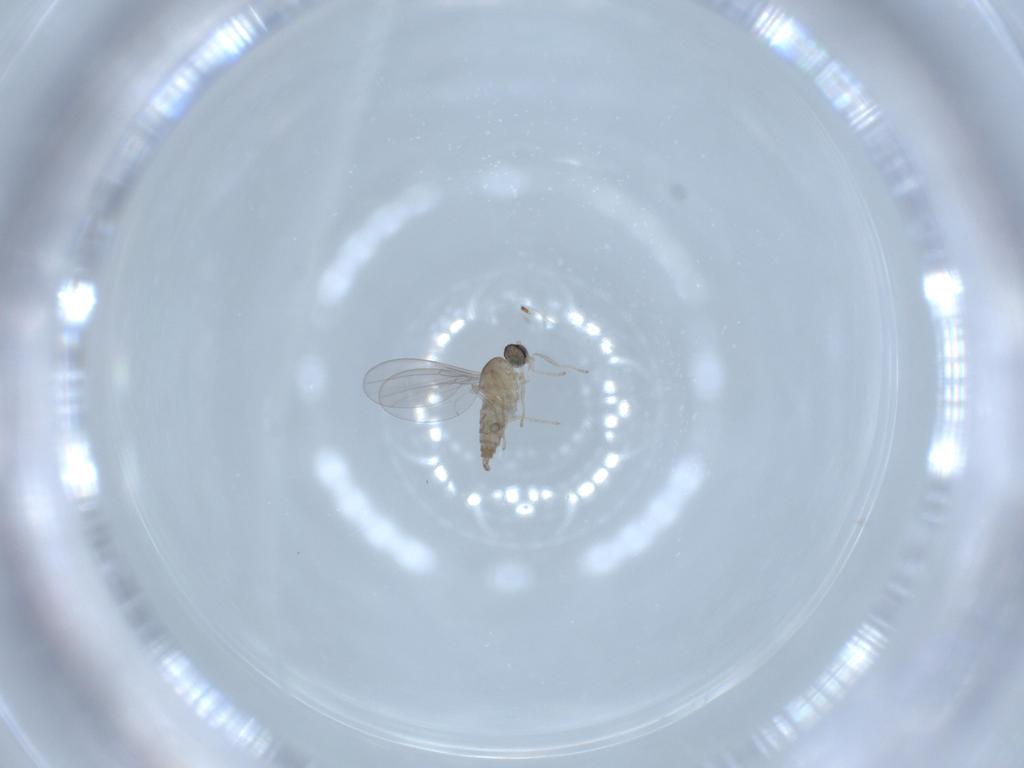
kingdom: Animalia
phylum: Arthropoda
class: Insecta
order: Diptera
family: Chironomidae
